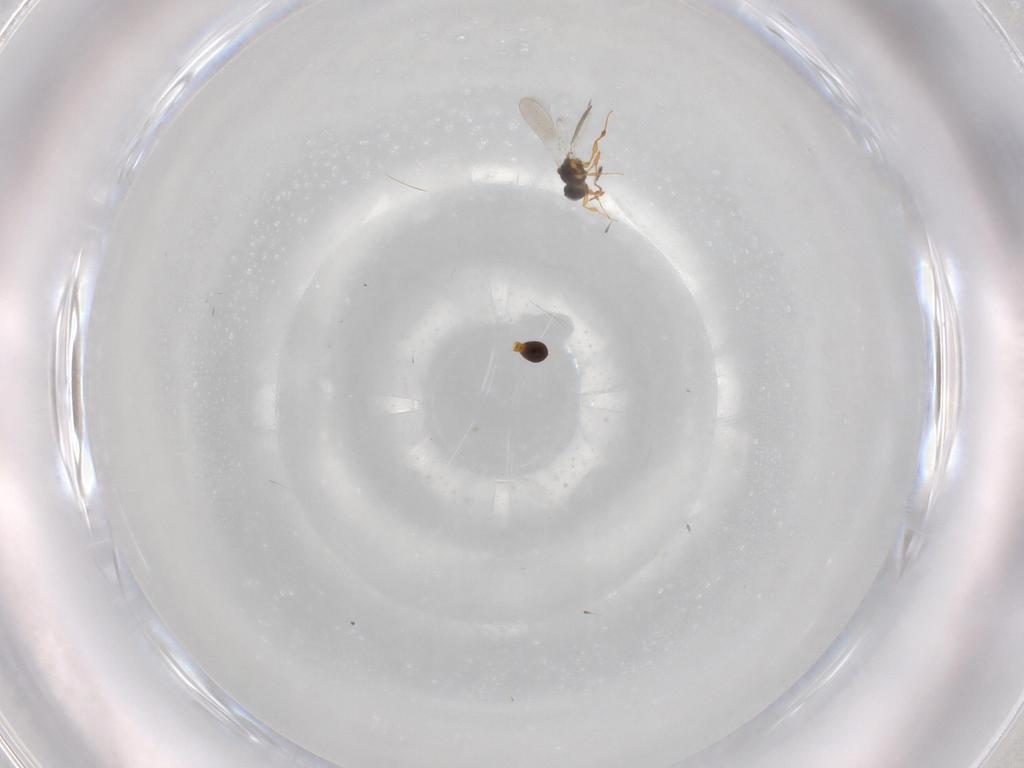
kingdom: Animalia
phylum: Arthropoda
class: Insecta
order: Hymenoptera
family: Platygastridae
